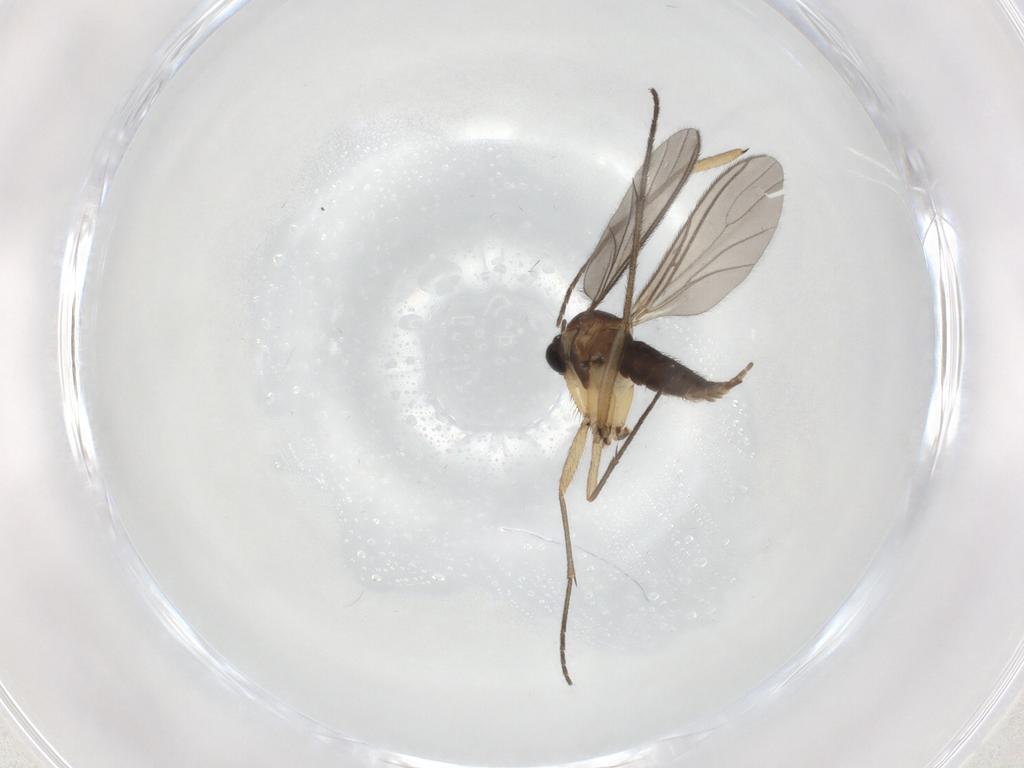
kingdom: Animalia
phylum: Arthropoda
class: Insecta
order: Diptera
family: Sciaridae
